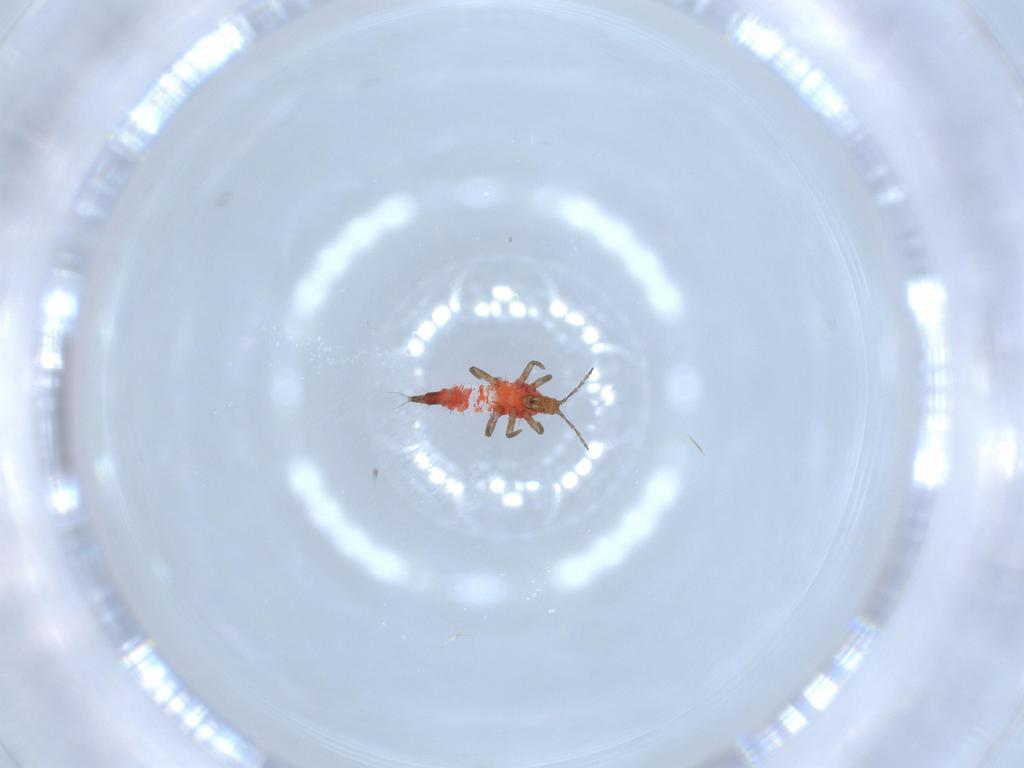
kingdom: Animalia
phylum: Arthropoda
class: Insecta
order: Thysanoptera
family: Phlaeothripidae
